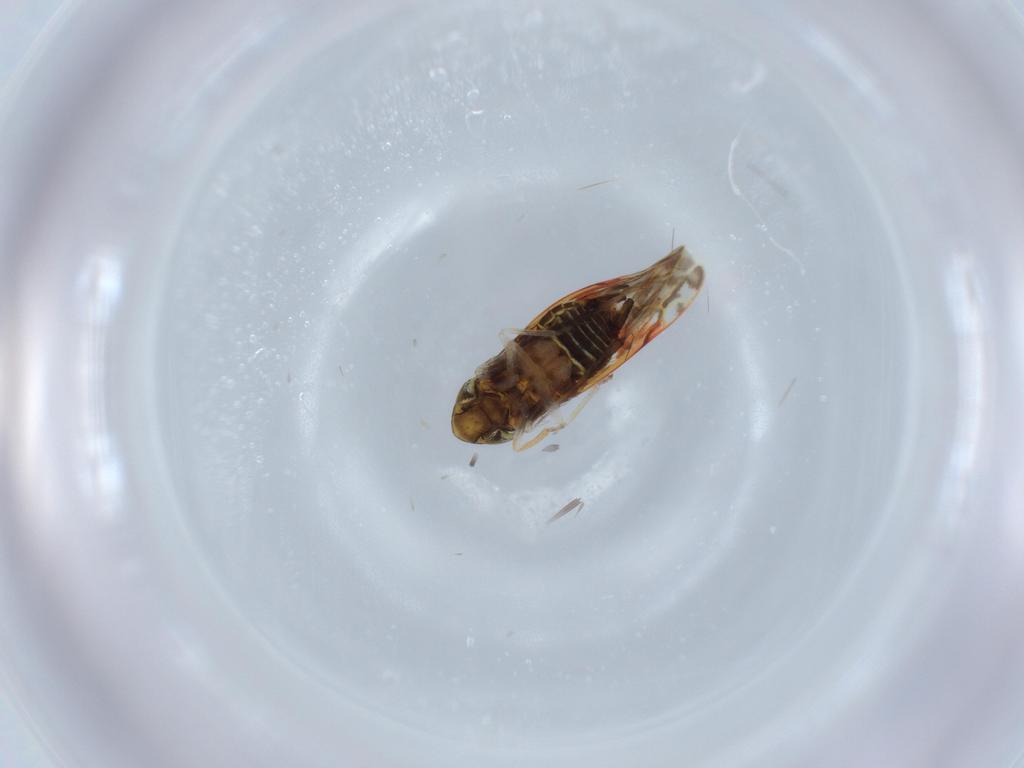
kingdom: Animalia
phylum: Arthropoda
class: Insecta
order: Hemiptera
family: Cicadellidae
